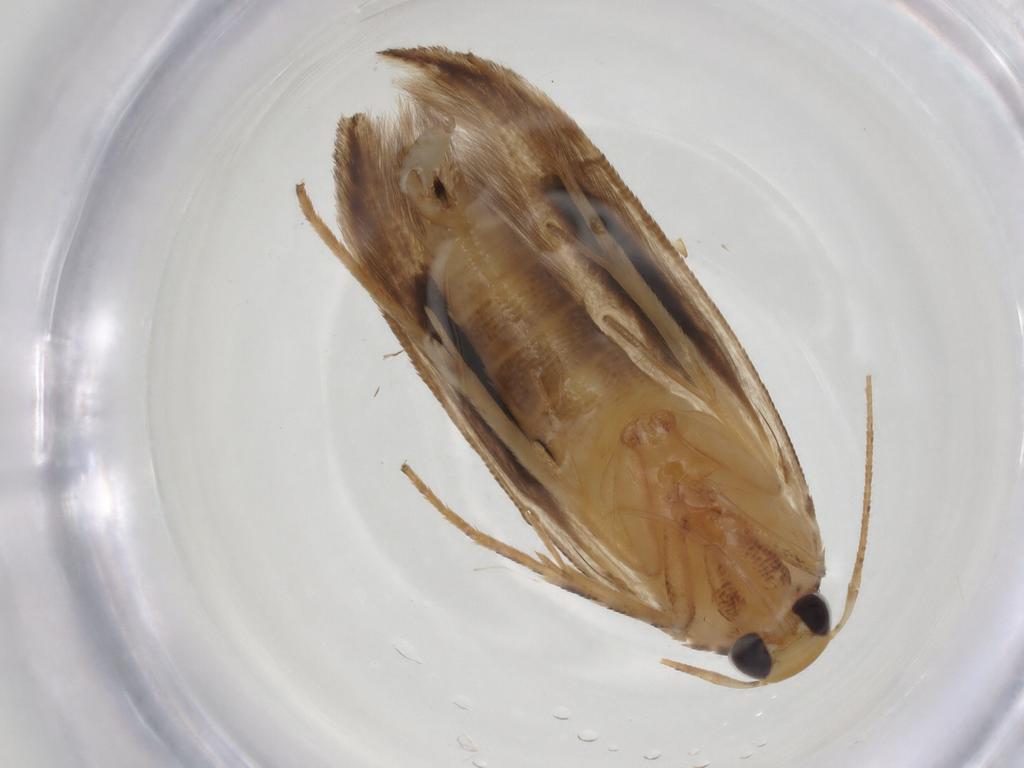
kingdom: Animalia
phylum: Arthropoda
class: Insecta
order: Lepidoptera
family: Momphidae
